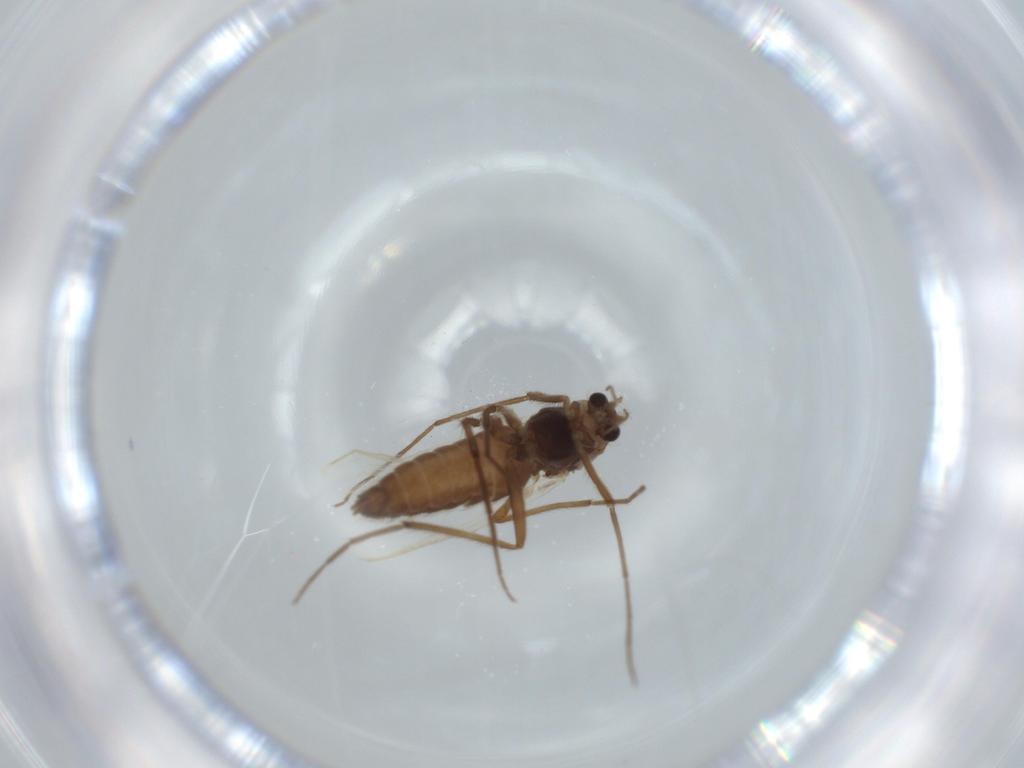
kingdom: Animalia
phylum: Arthropoda
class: Insecta
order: Diptera
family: Chironomidae
